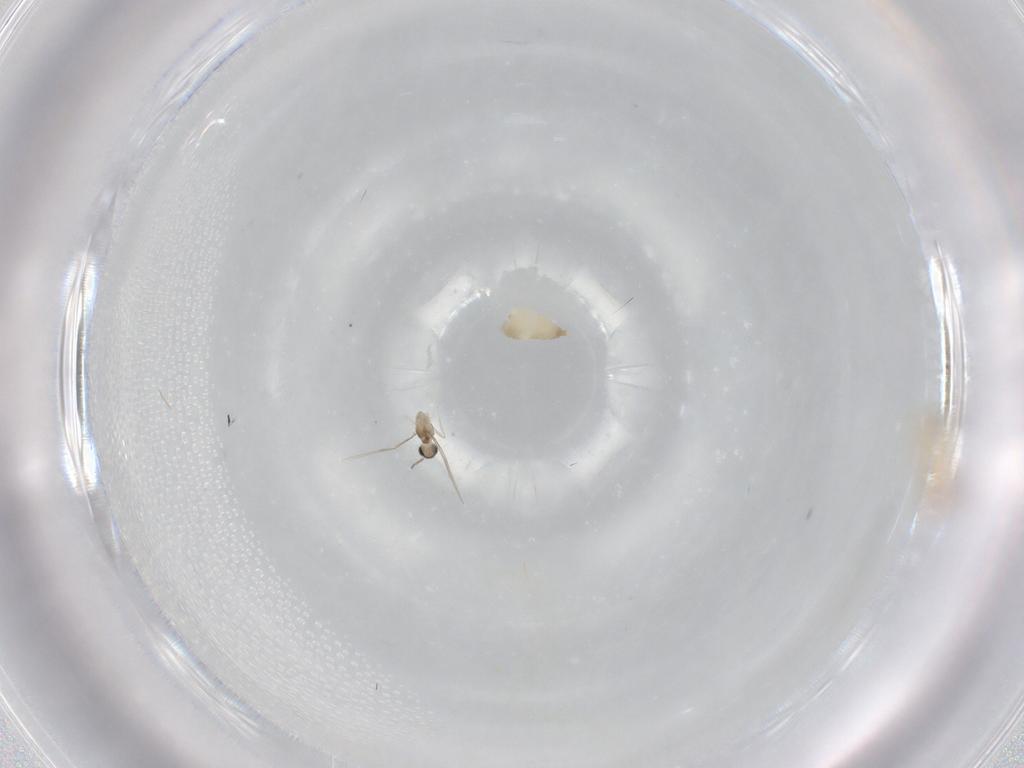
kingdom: Animalia
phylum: Arthropoda
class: Insecta
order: Diptera
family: Cecidomyiidae
